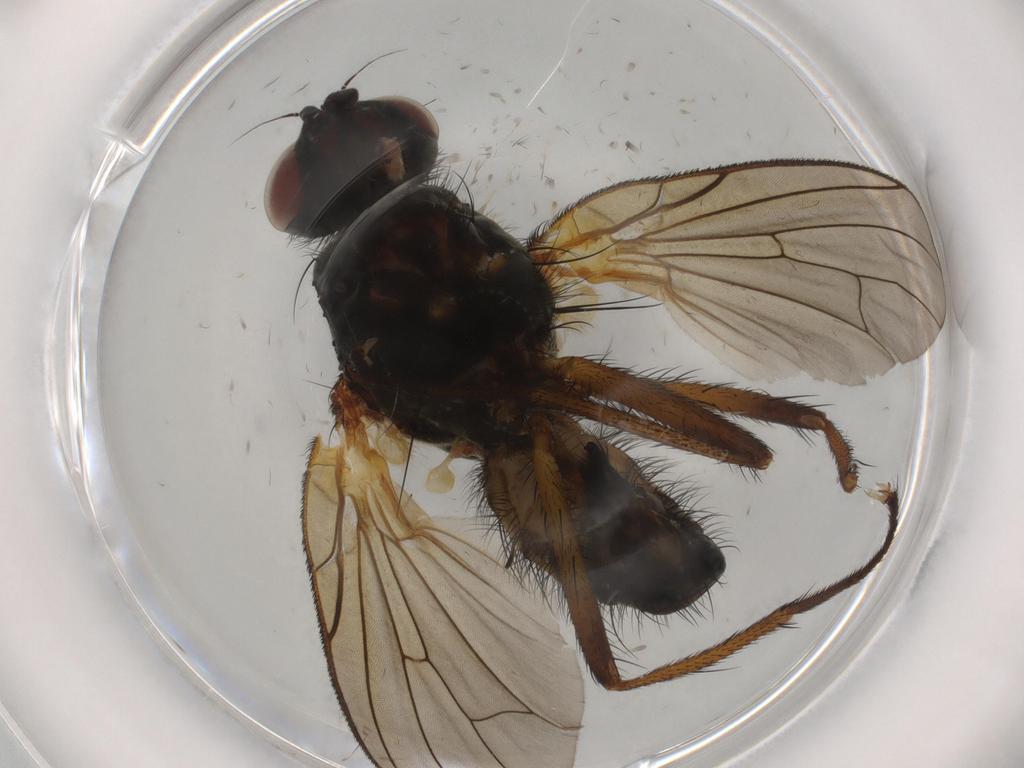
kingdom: Animalia
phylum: Arthropoda
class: Insecta
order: Diptera
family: Anthomyiidae
